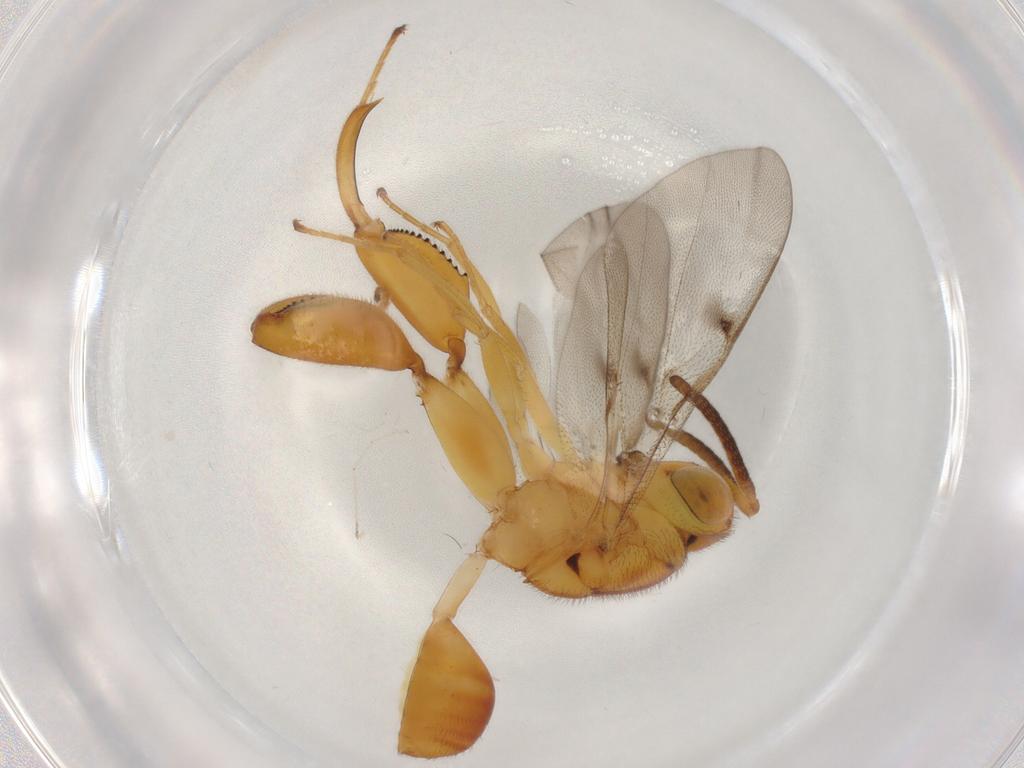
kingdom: Animalia
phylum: Arthropoda
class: Insecta
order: Hymenoptera
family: Chalcididae
